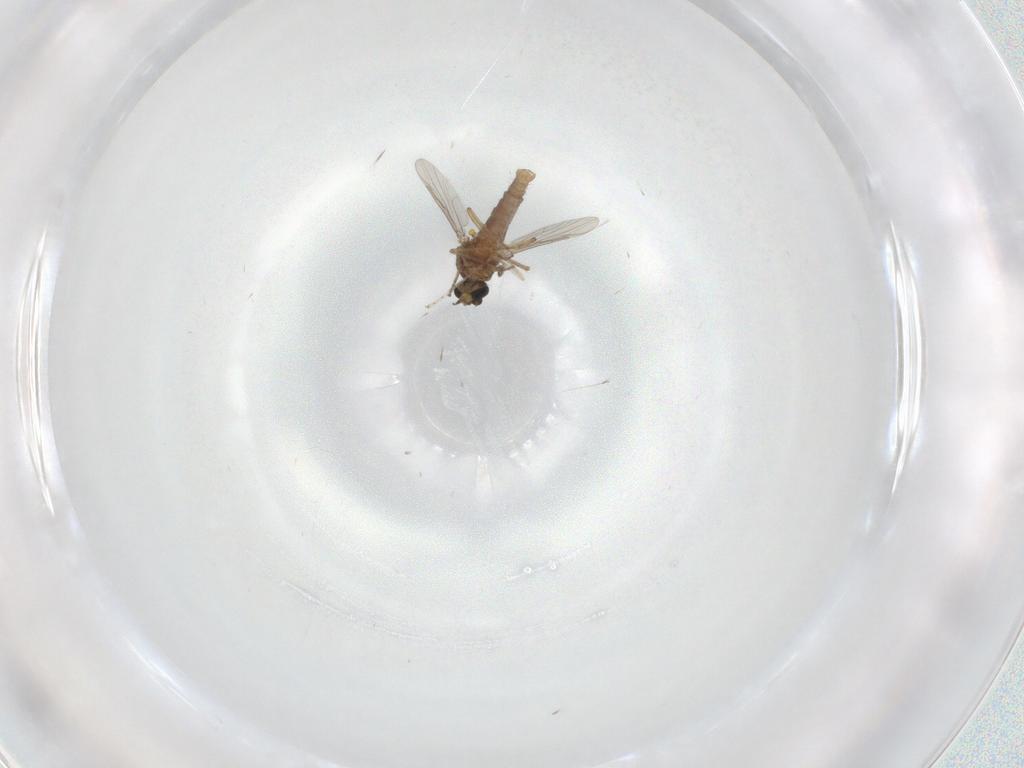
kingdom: Animalia
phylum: Arthropoda
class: Insecta
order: Diptera
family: Ceratopogonidae
